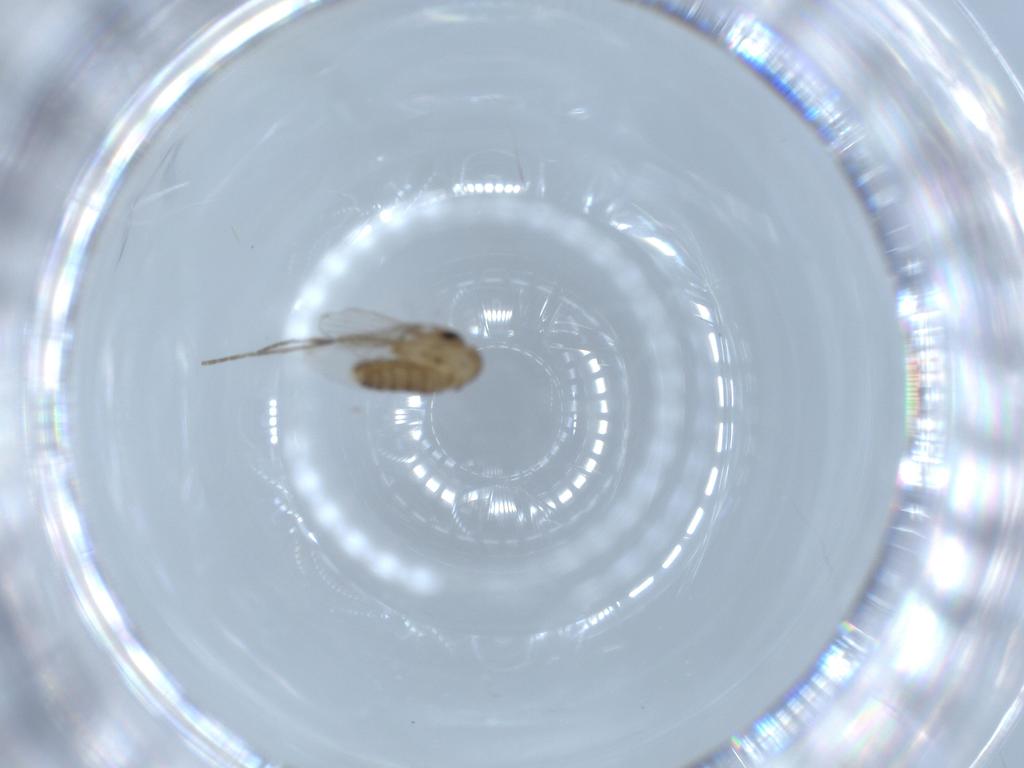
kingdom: Animalia
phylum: Arthropoda
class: Insecta
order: Diptera
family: Psychodidae
